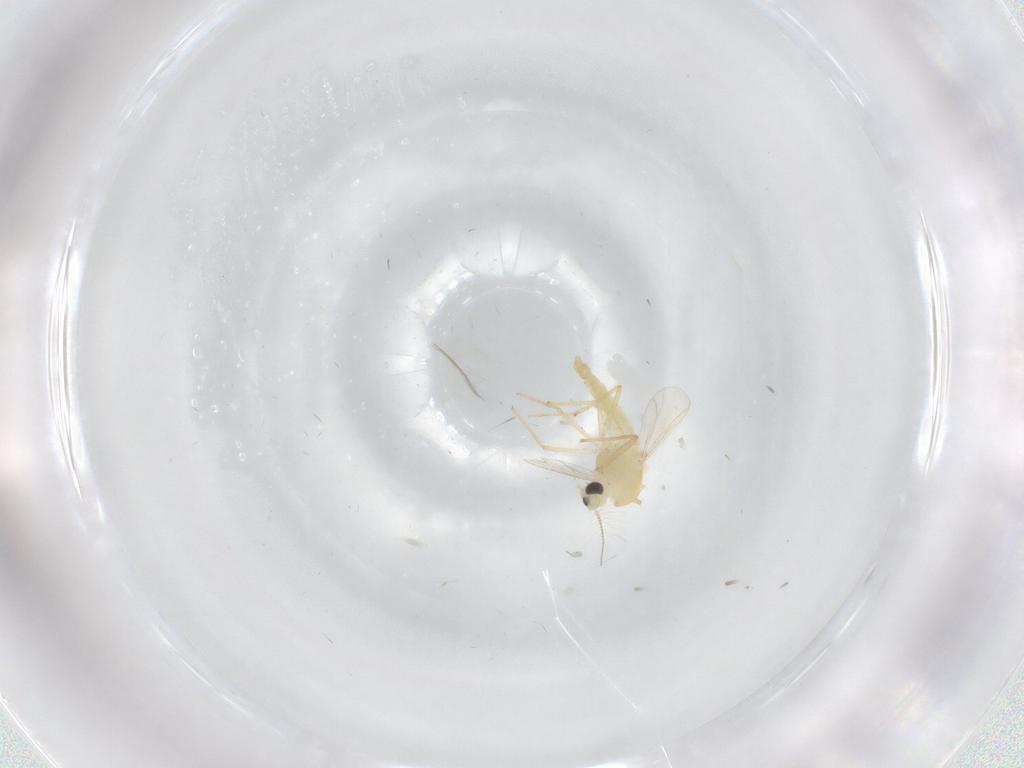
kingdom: Animalia
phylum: Arthropoda
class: Insecta
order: Diptera
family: Chironomidae
